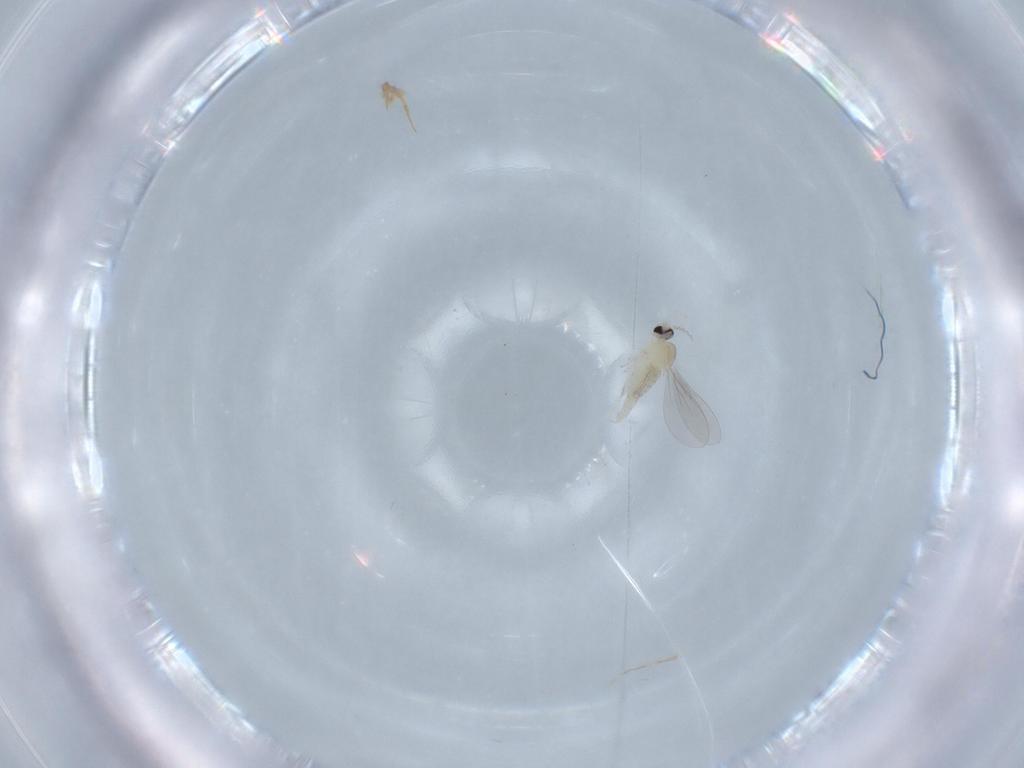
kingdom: Animalia
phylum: Arthropoda
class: Insecta
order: Diptera
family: Cecidomyiidae
